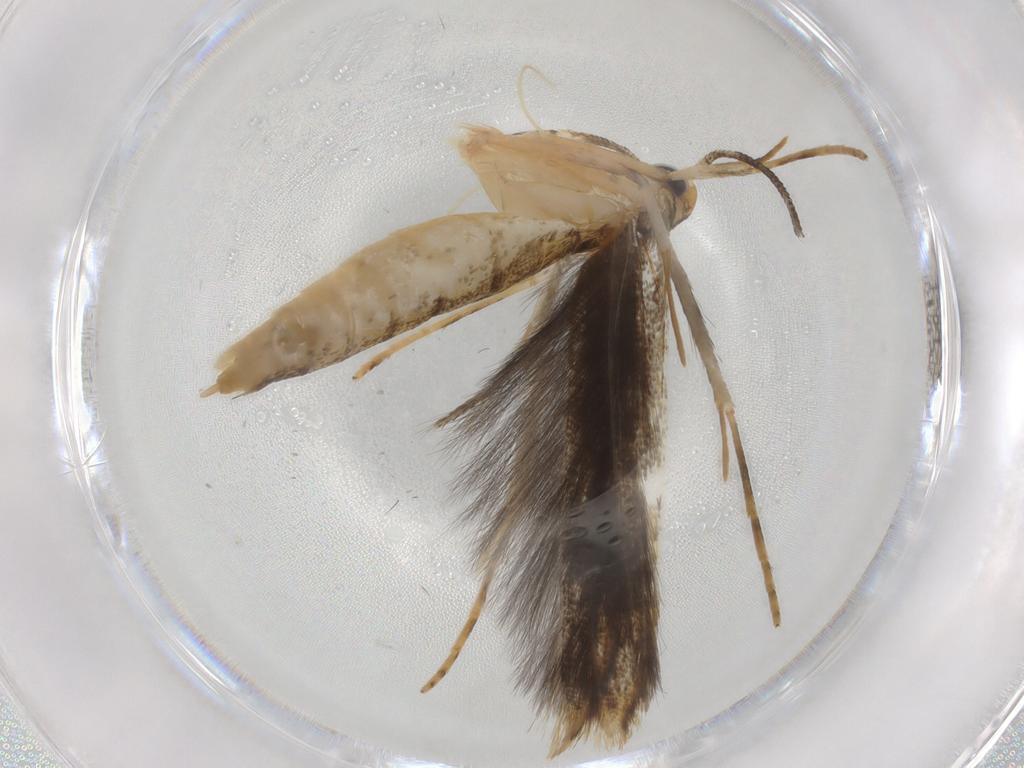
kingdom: Animalia
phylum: Arthropoda
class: Insecta
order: Lepidoptera
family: Pterolonchidae
